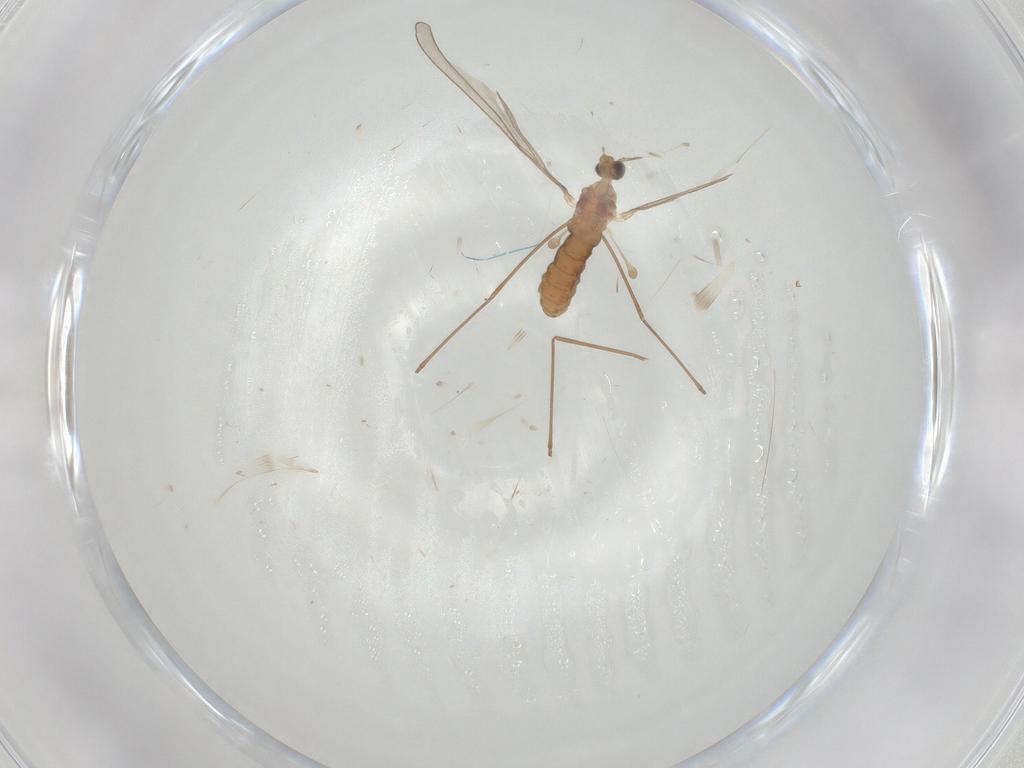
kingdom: Animalia
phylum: Arthropoda
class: Insecta
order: Diptera
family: Cecidomyiidae
